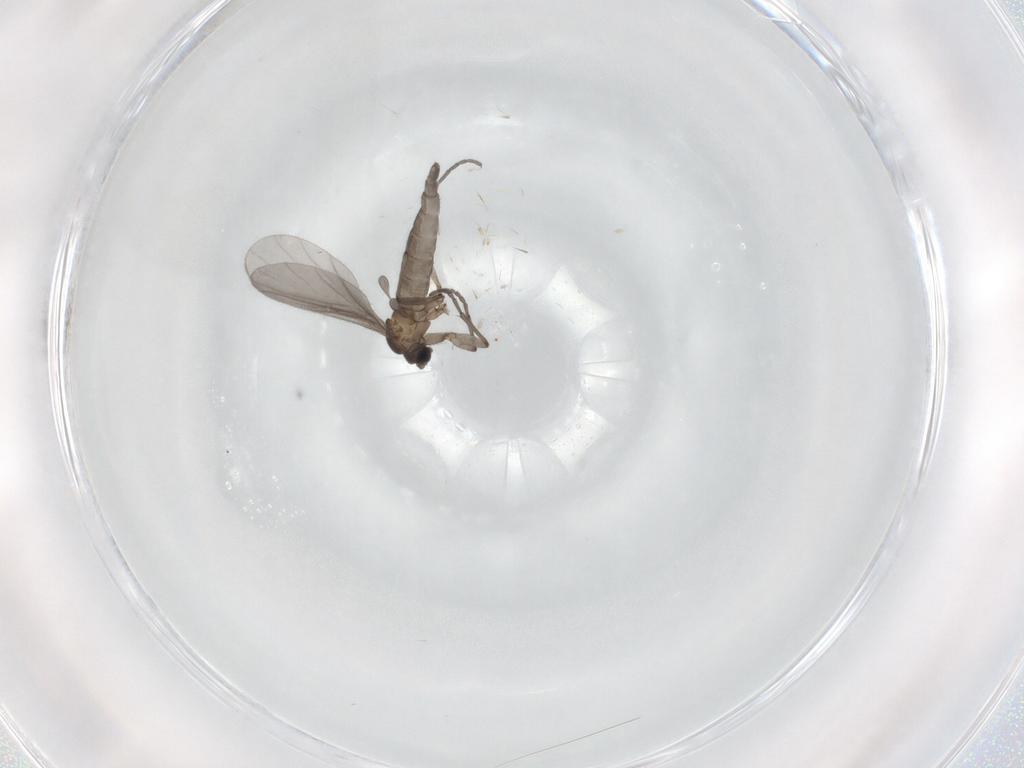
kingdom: Animalia
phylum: Arthropoda
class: Insecta
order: Diptera
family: Sciaridae
